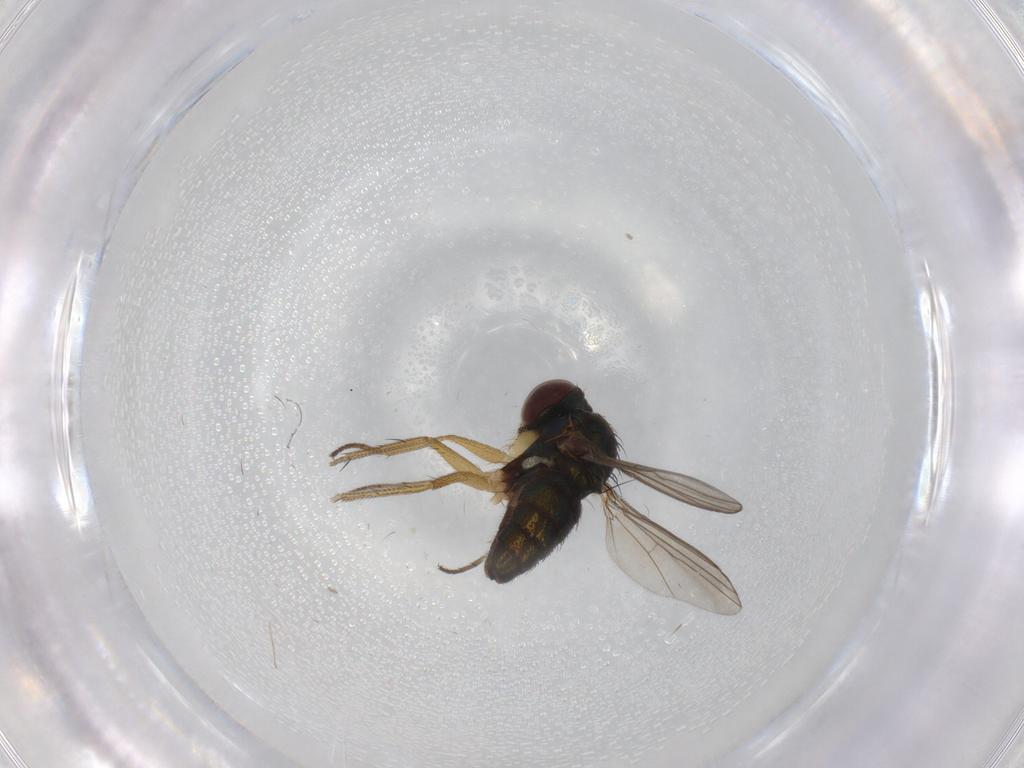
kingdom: Animalia
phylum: Arthropoda
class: Insecta
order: Diptera
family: Dolichopodidae
